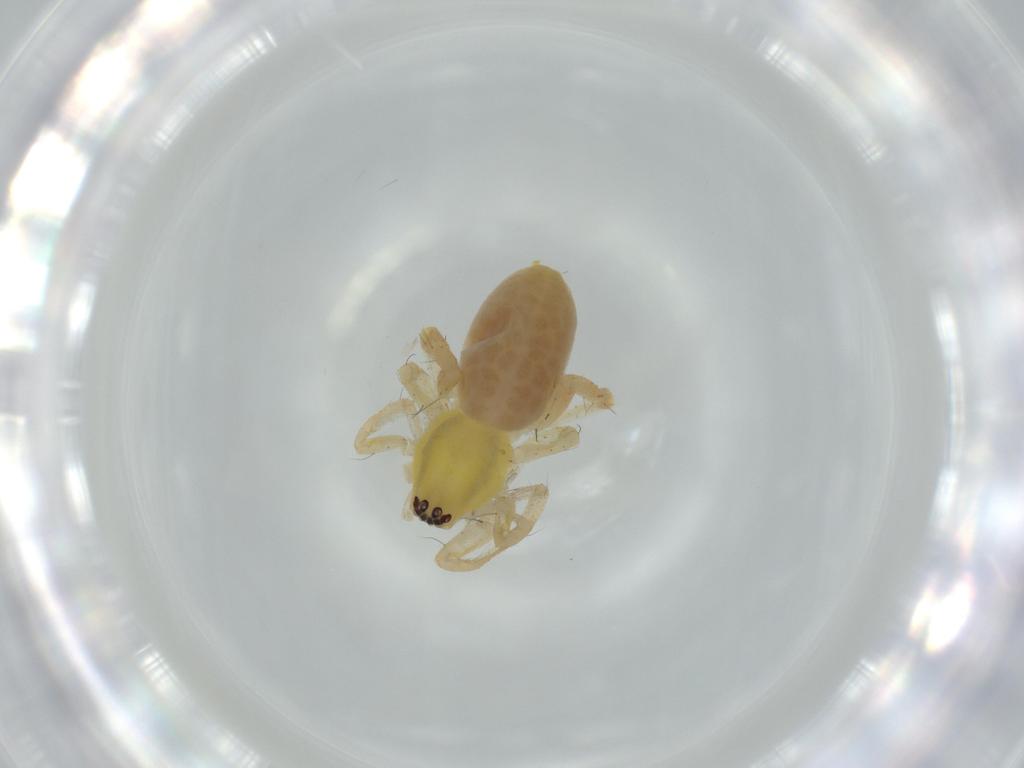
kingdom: Animalia
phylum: Arthropoda
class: Arachnida
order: Araneae
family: Anyphaenidae
